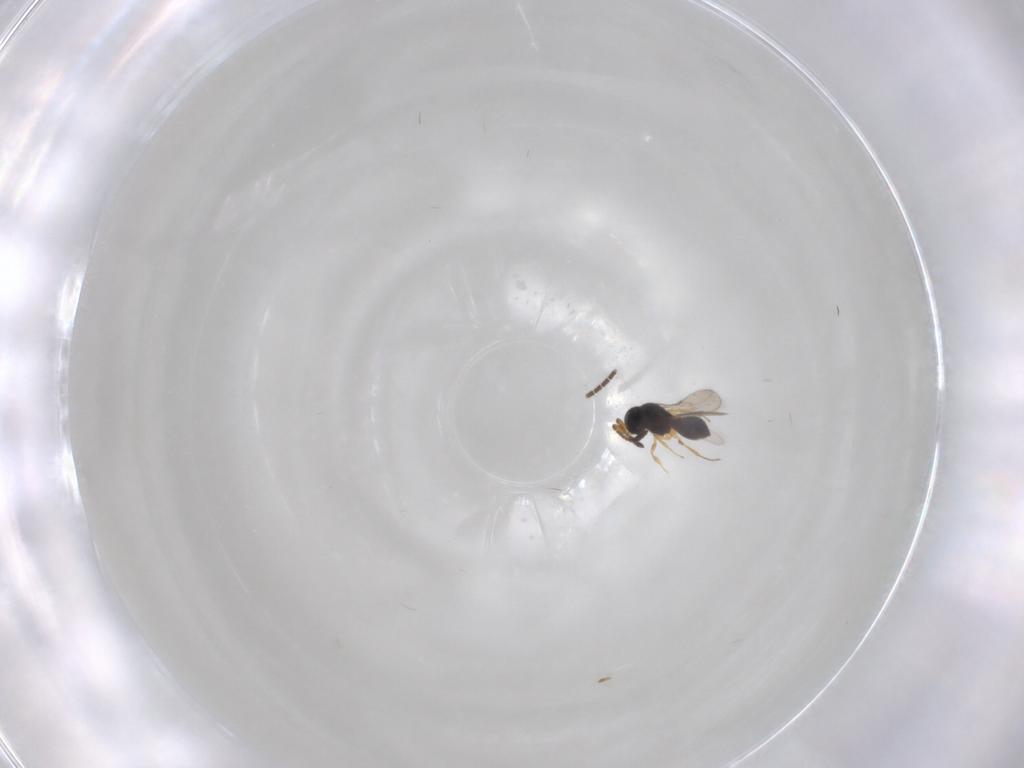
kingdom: Animalia
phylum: Arthropoda
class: Insecta
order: Hymenoptera
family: Scelionidae
